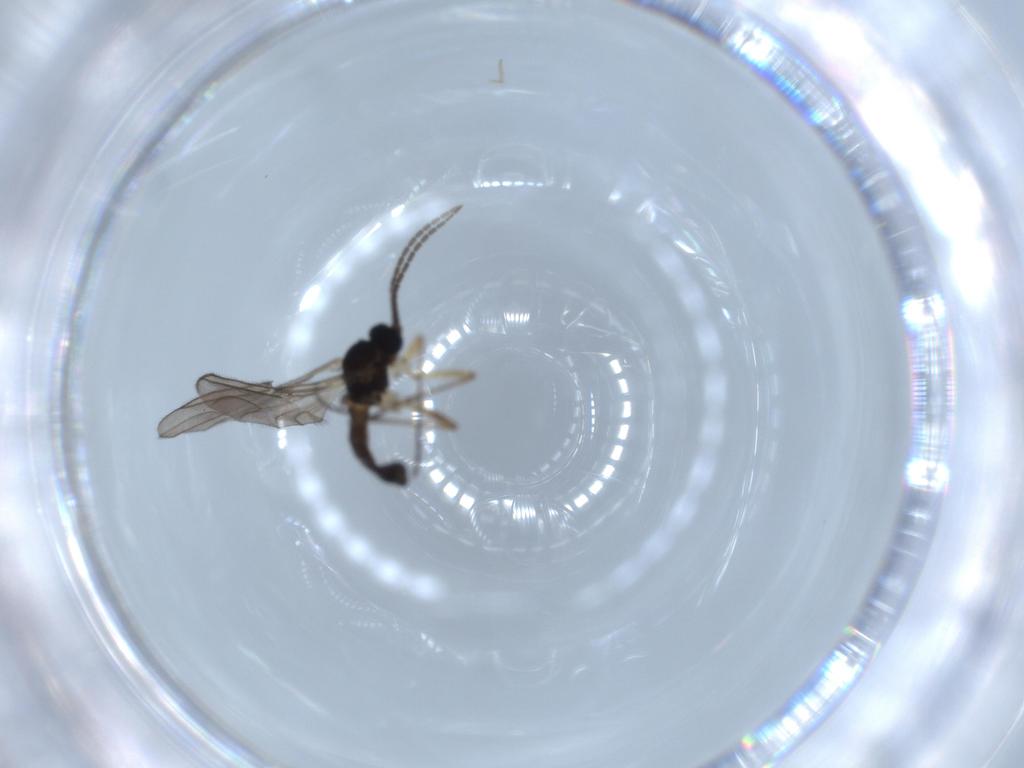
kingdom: Animalia
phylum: Arthropoda
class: Insecta
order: Diptera
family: Sciaridae
